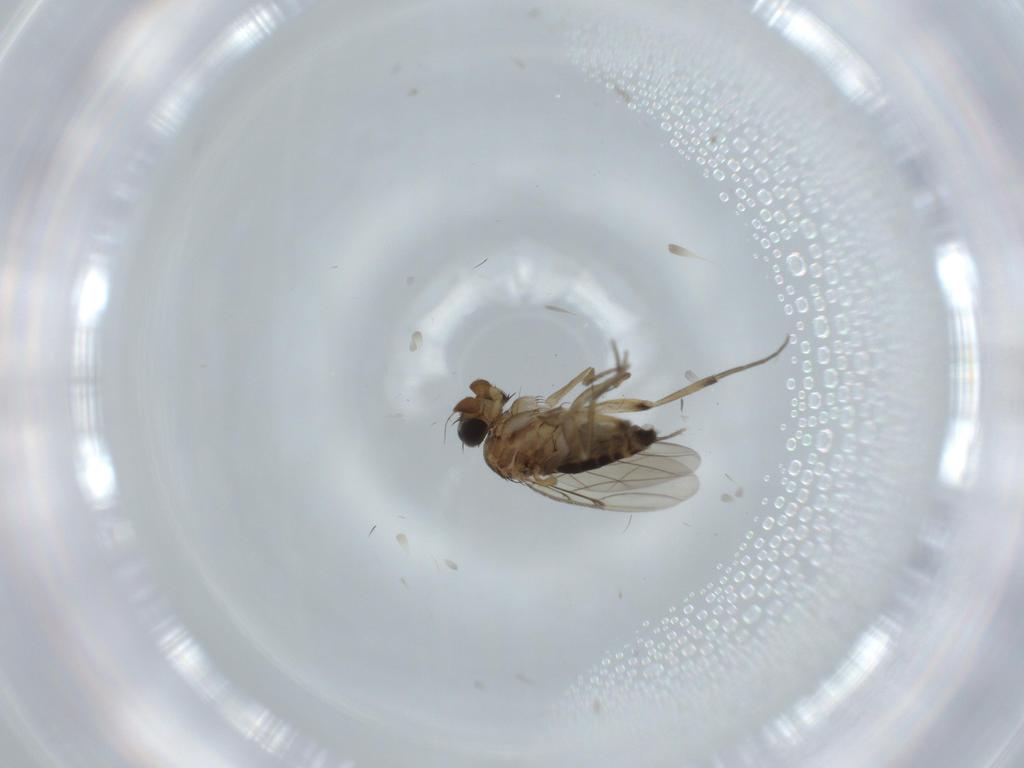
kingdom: Animalia
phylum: Arthropoda
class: Insecta
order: Diptera
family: Phoridae
